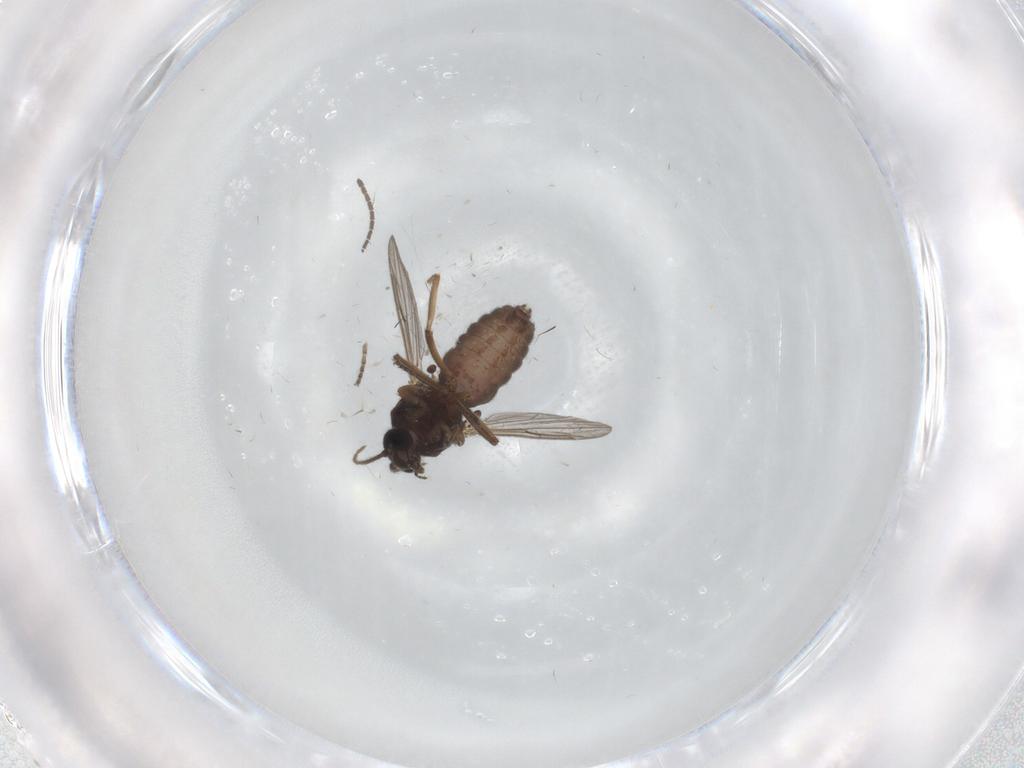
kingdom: Animalia
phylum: Arthropoda
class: Insecta
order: Diptera
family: Ceratopogonidae
